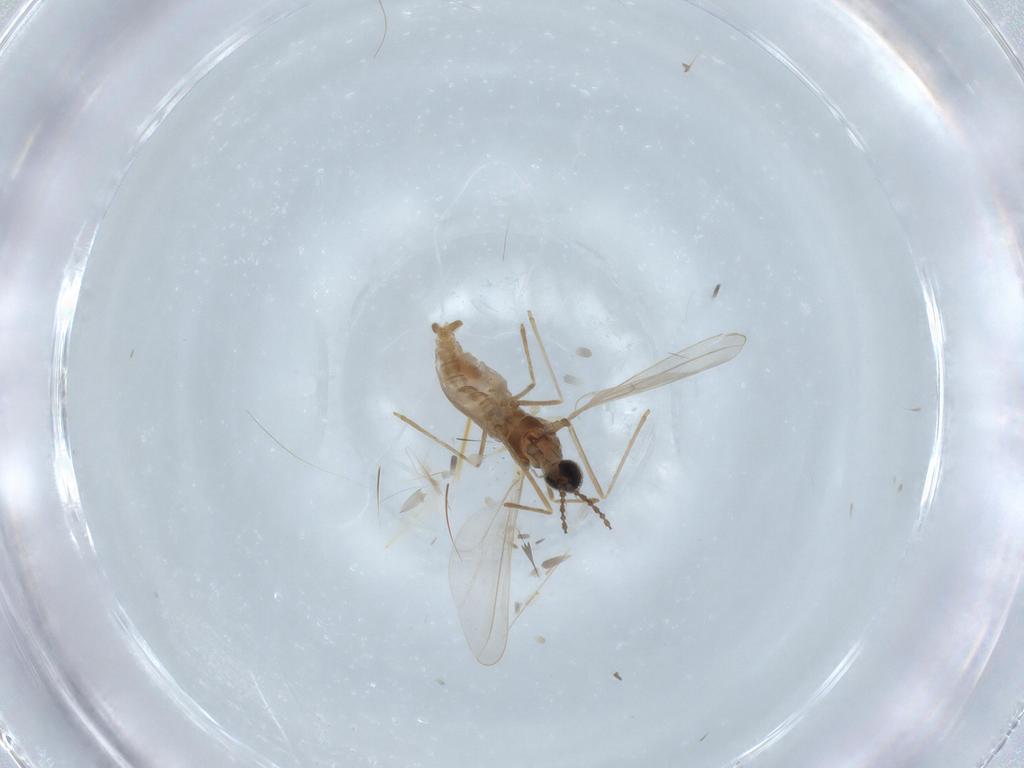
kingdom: Animalia
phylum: Arthropoda
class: Insecta
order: Diptera
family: Cecidomyiidae
